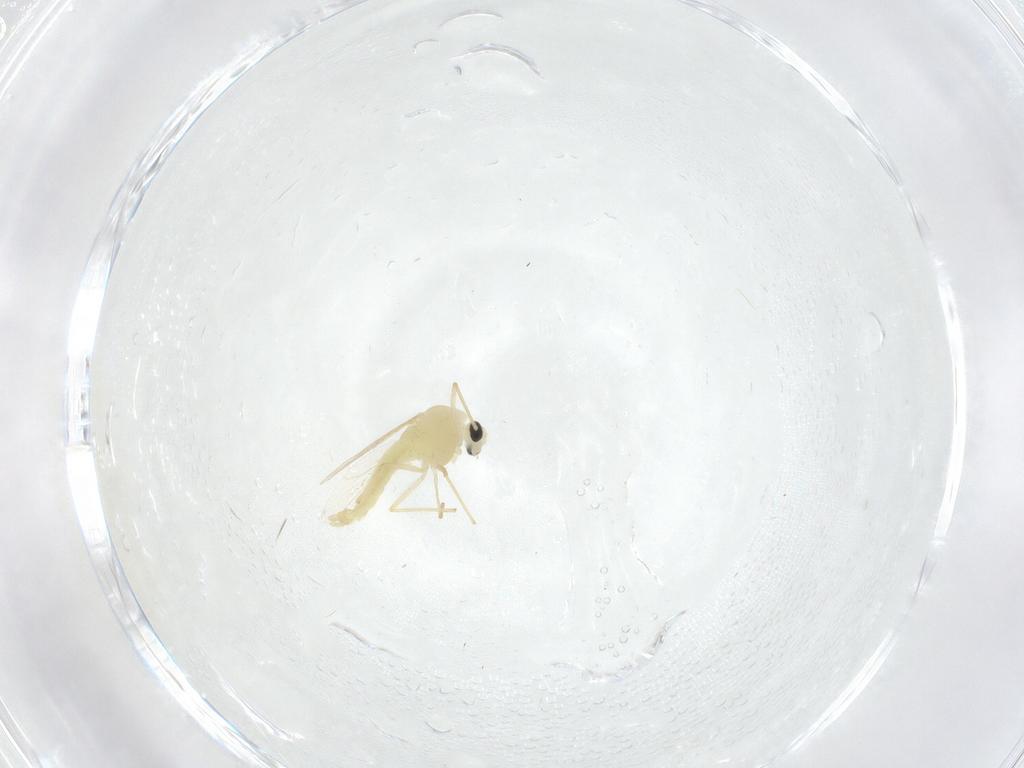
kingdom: Animalia
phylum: Arthropoda
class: Insecta
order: Diptera
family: Chironomidae
